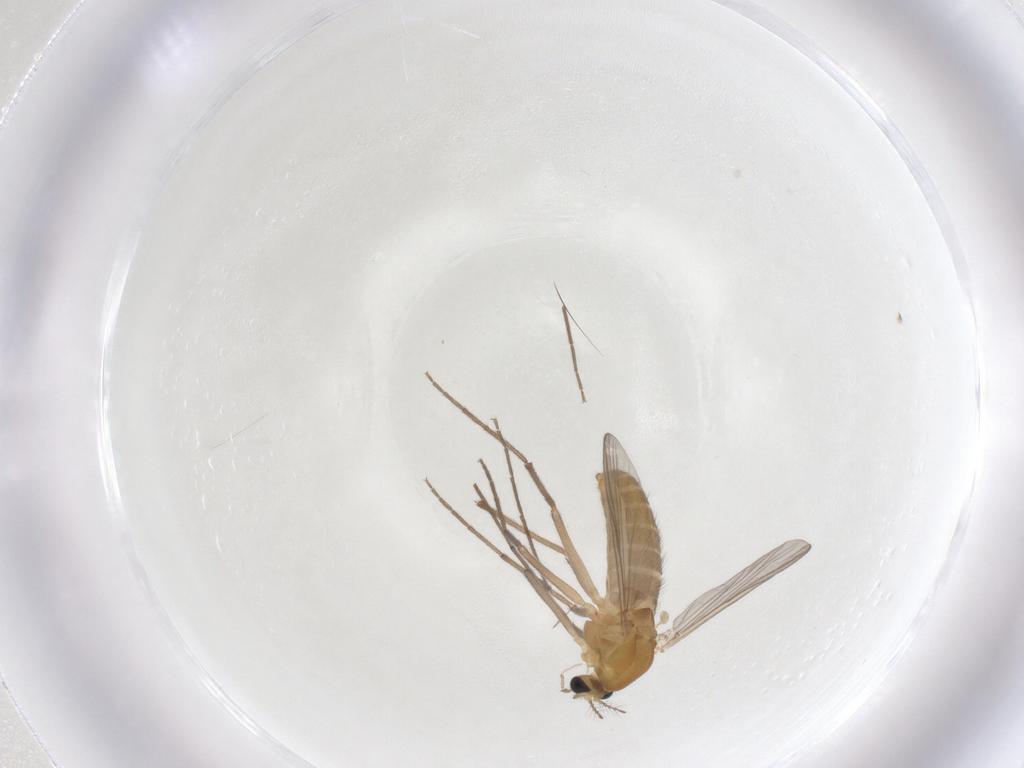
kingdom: Animalia
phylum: Arthropoda
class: Insecta
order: Diptera
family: Chironomidae
